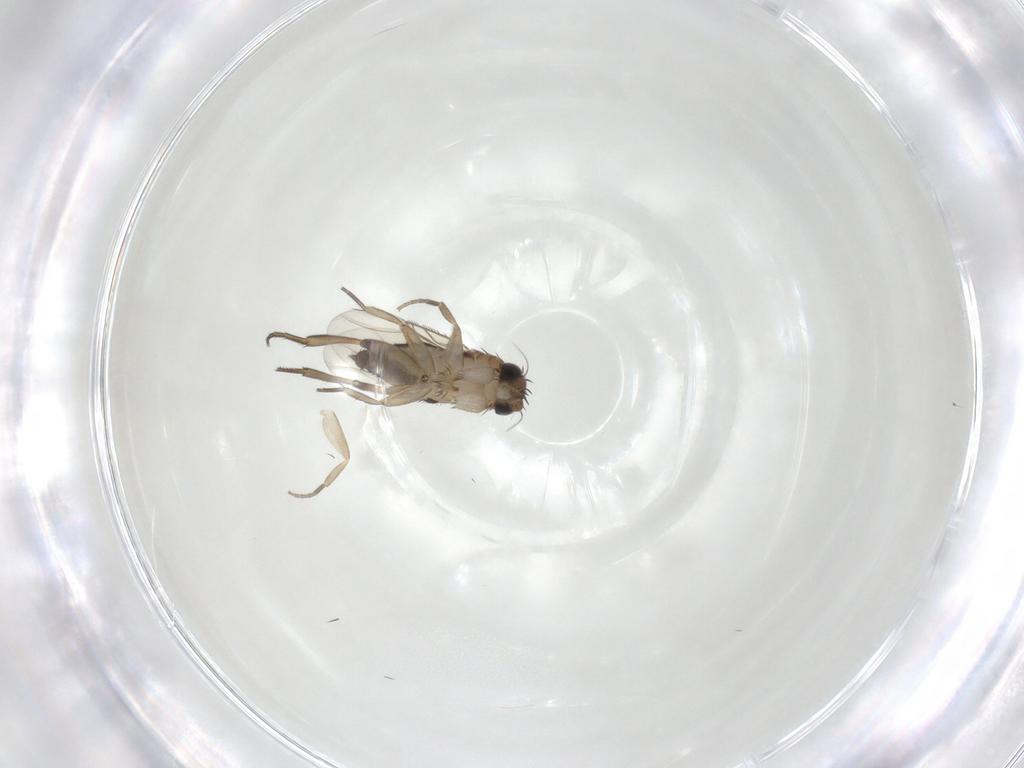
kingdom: Animalia
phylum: Arthropoda
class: Insecta
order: Diptera
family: Phoridae
